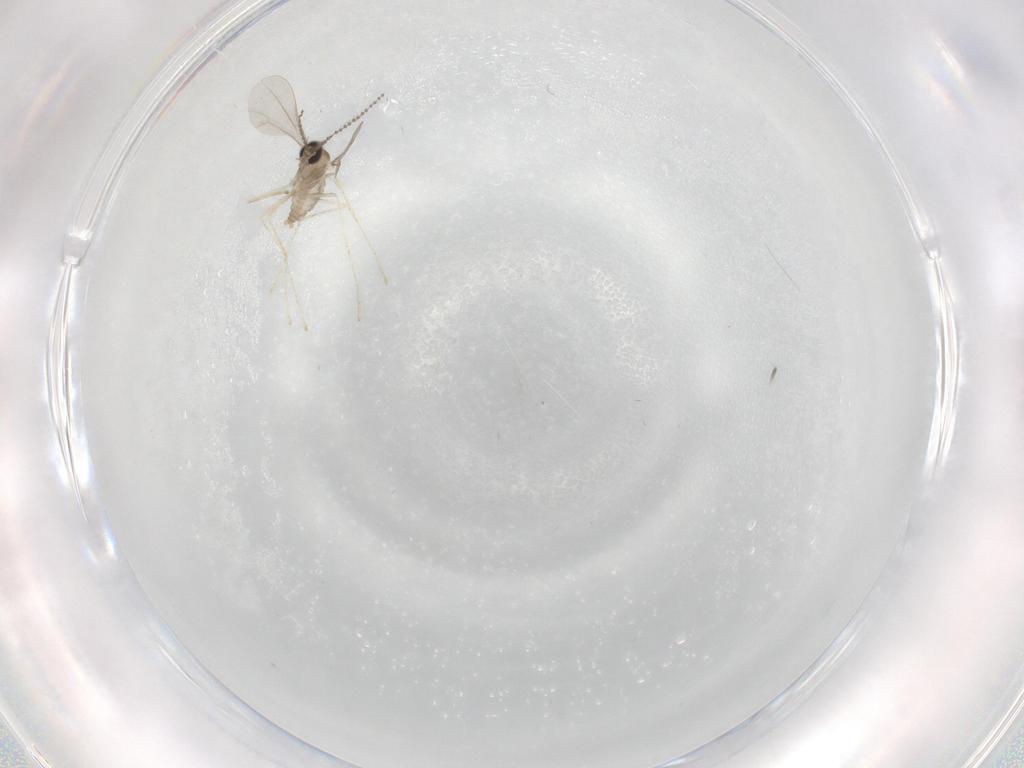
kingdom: Animalia
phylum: Arthropoda
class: Insecta
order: Diptera
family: Cecidomyiidae
